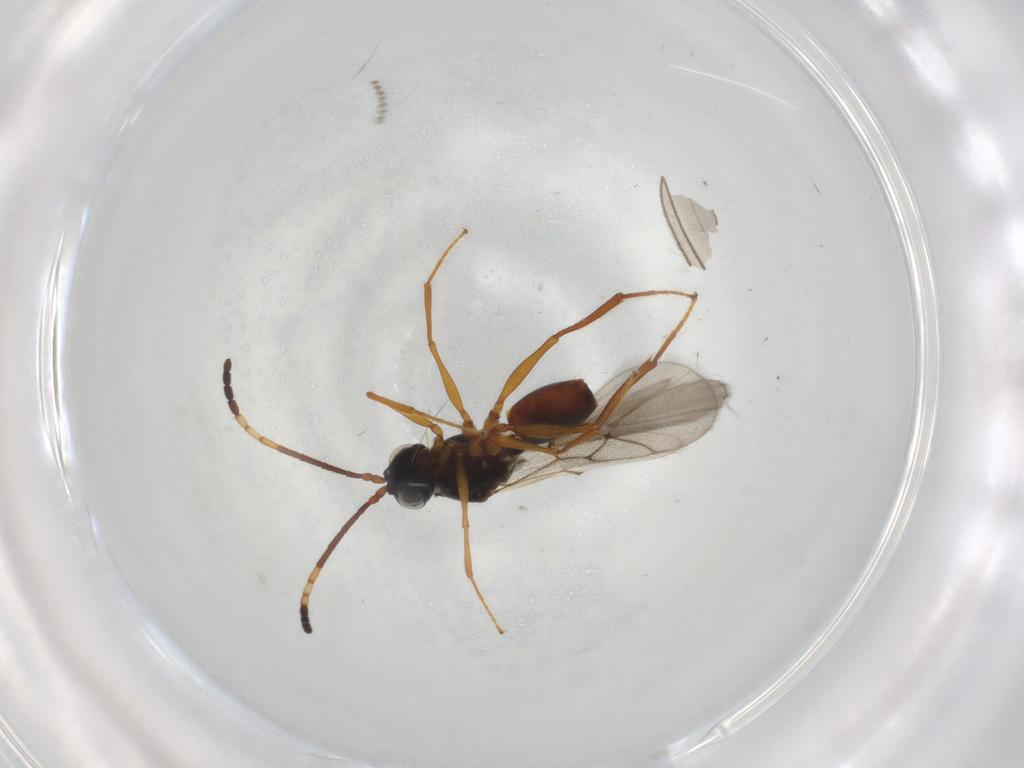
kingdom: Animalia
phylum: Arthropoda
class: Insecta
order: Hymenoptera
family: Figitidae
